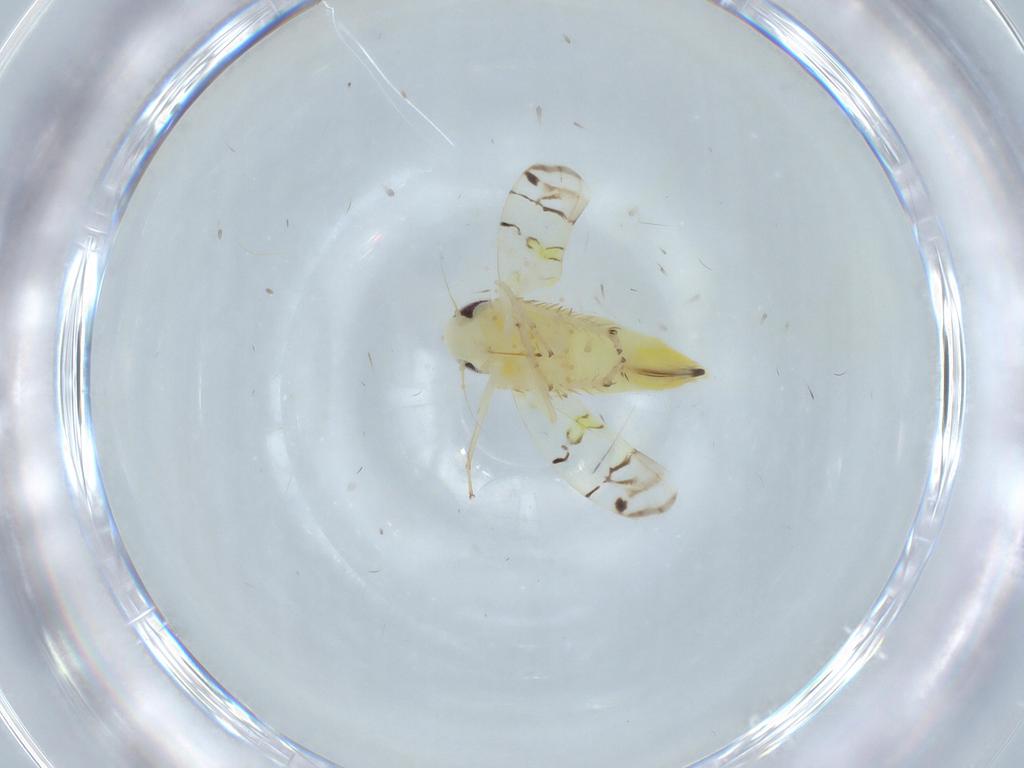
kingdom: Animalia
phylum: Arthropoda
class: Insecta
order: Hemiptera
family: Cicadellidae
